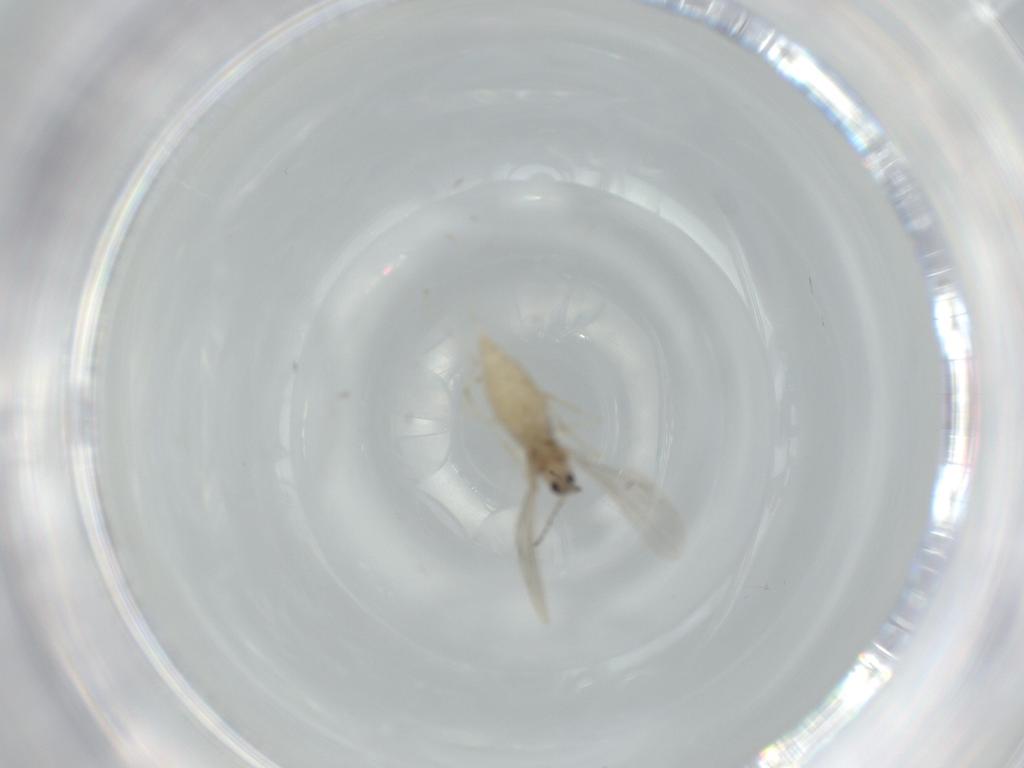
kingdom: Animalia
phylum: Arthropoda
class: Insecta
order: Diptera
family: Cecidomyiidae
